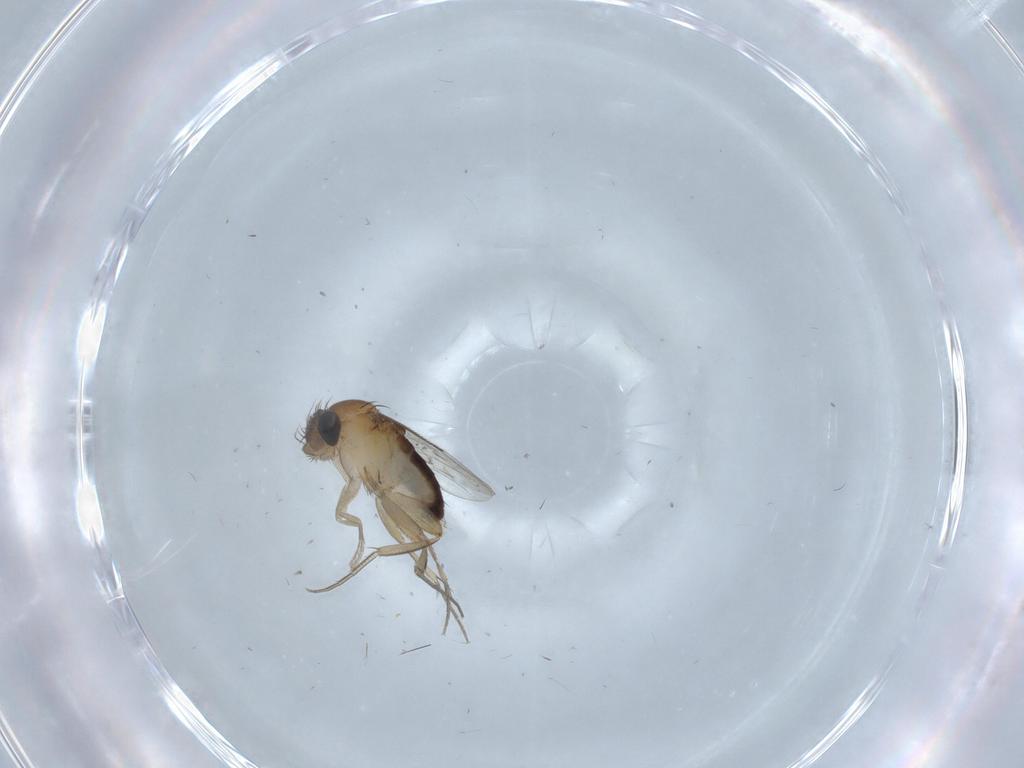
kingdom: Animalia
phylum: Arthropoda
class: Insecta
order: Diptera
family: Phoridae
